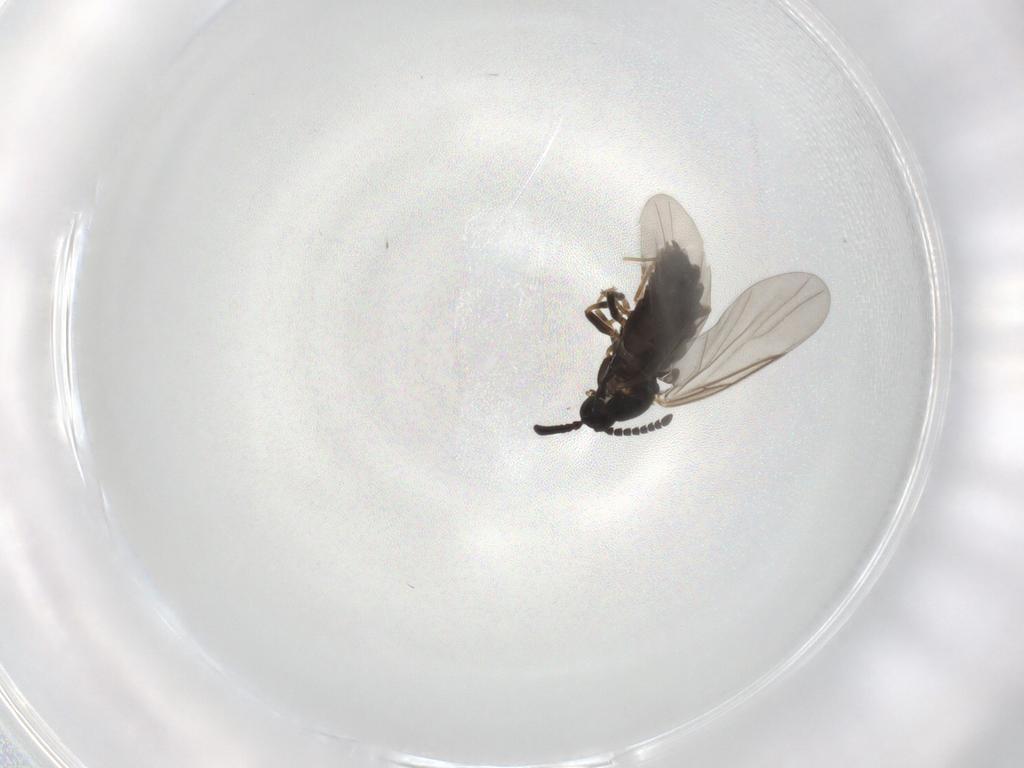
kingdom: Animalia
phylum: Arthropoda
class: Insecta
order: Diptera
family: Scatopsidae
